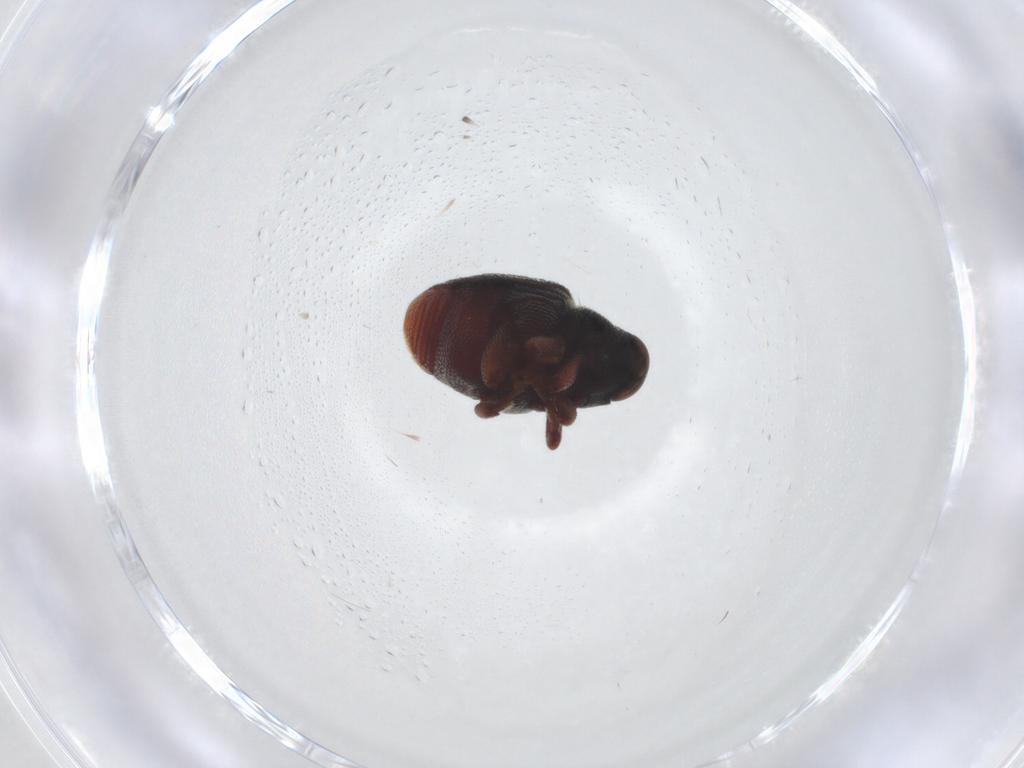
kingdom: Animalia
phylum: Arthropoda
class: Insecta
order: Coleoptera
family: Curculionidae
